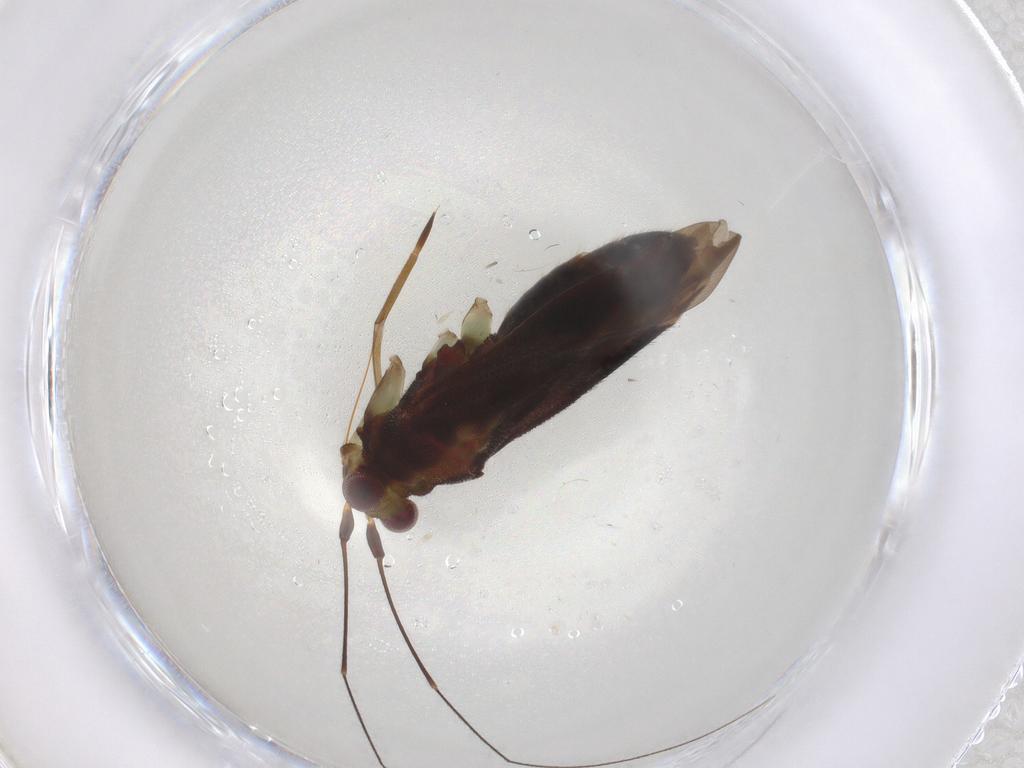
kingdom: Animalia
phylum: Arthropoda
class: Insecta
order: Hemiptera
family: Miridae
